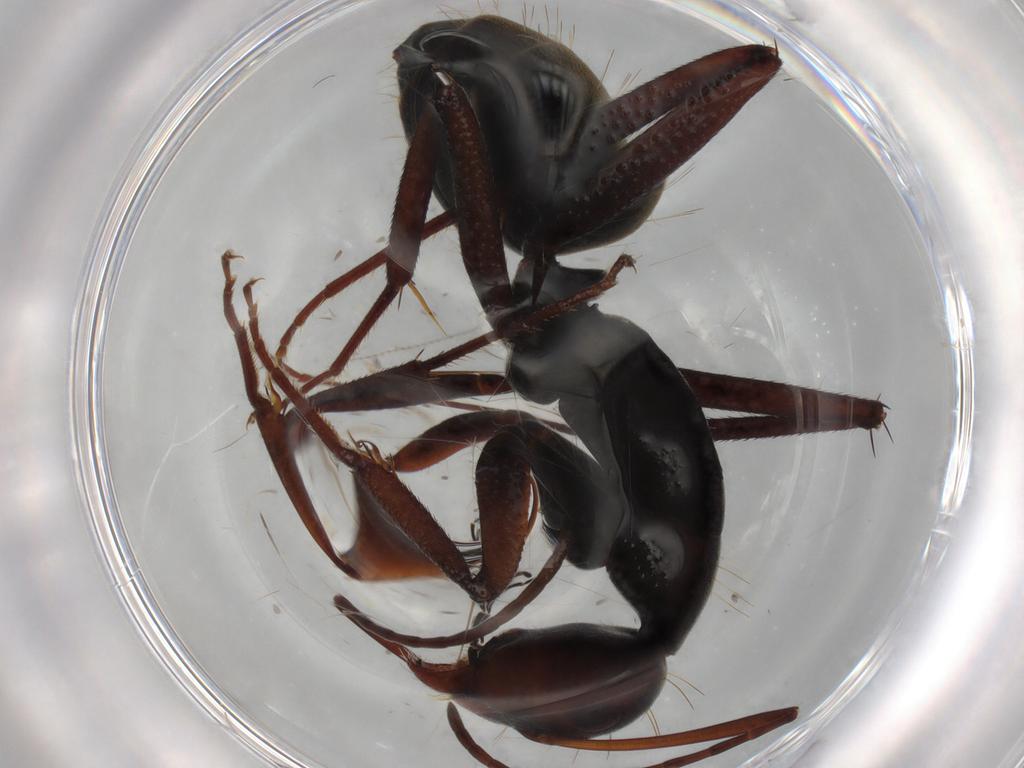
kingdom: Animalia
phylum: Arthropoda
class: Insecta
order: Hymenoptera
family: Formicidae
